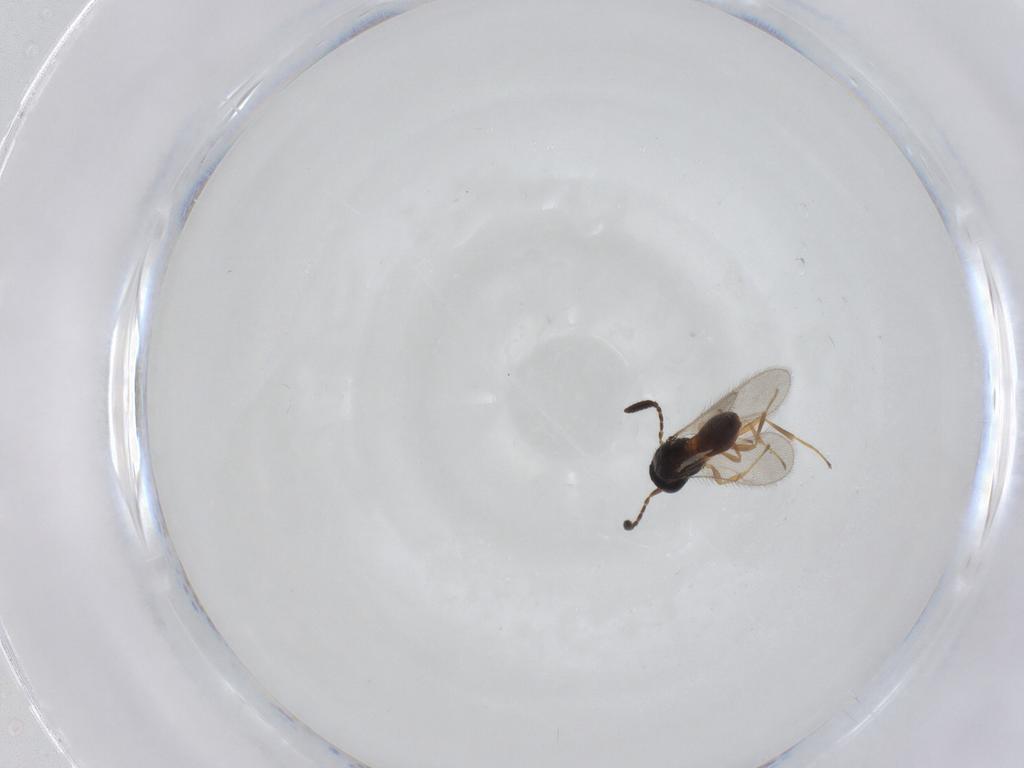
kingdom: Animalia
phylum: Arthropoda
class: Insecta
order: Hymenoptera
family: Scelionidae
